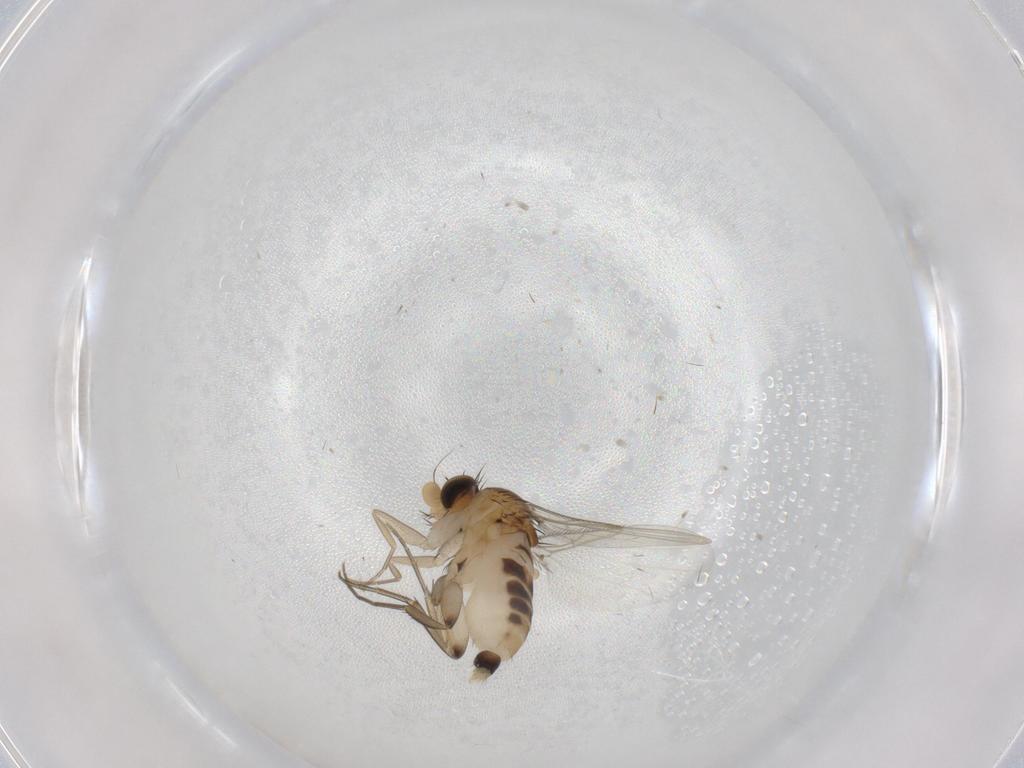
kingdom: Animalia
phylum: Arthropoda
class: Insecta
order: Diptera
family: Phoridae
